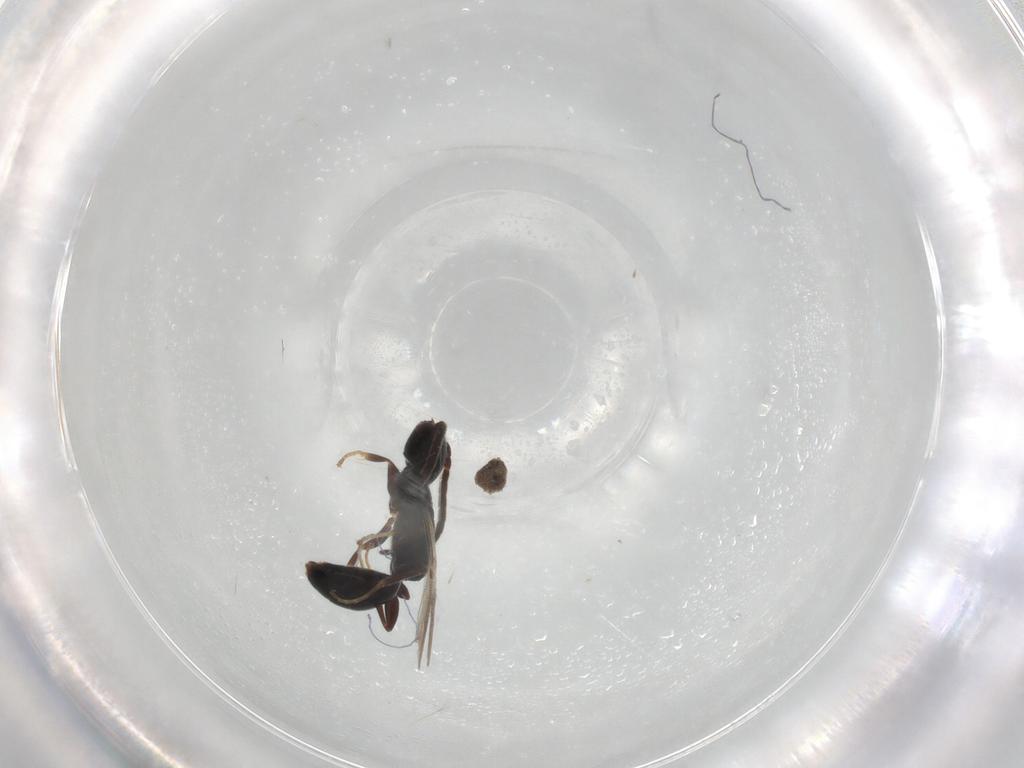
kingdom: Animalia
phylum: Arthropoda
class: Insecta
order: Hymenoptera
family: Bethylidae
